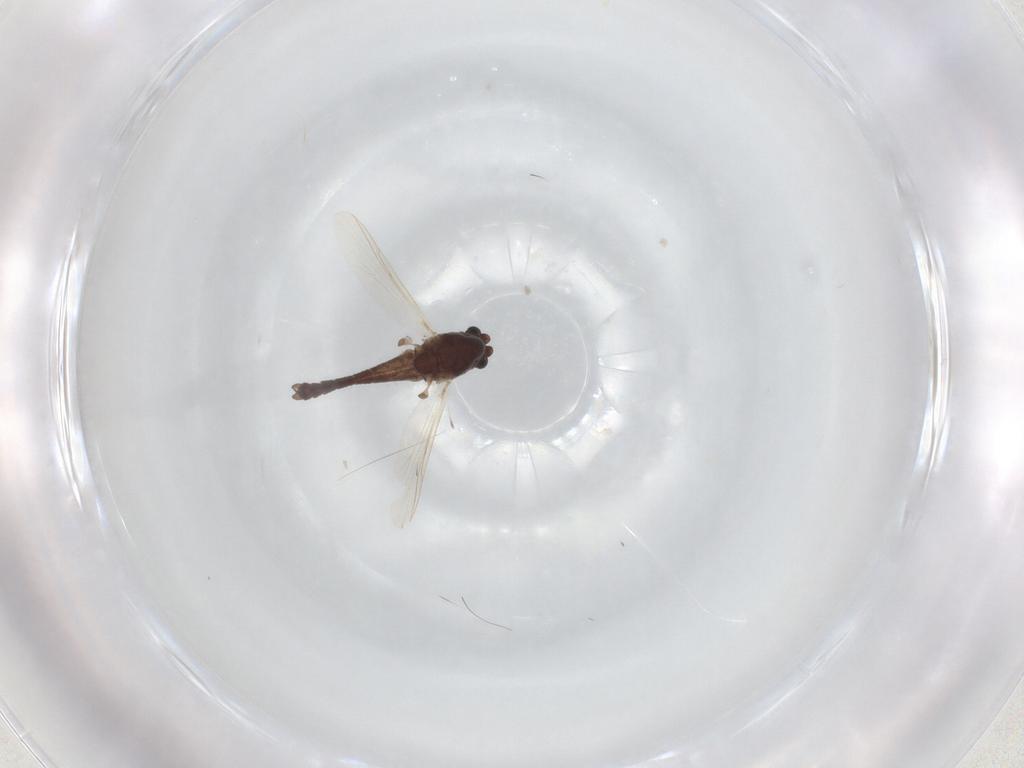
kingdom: Animalia
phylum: Arthropoda
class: Insecta
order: Diptera
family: Chironomidae
